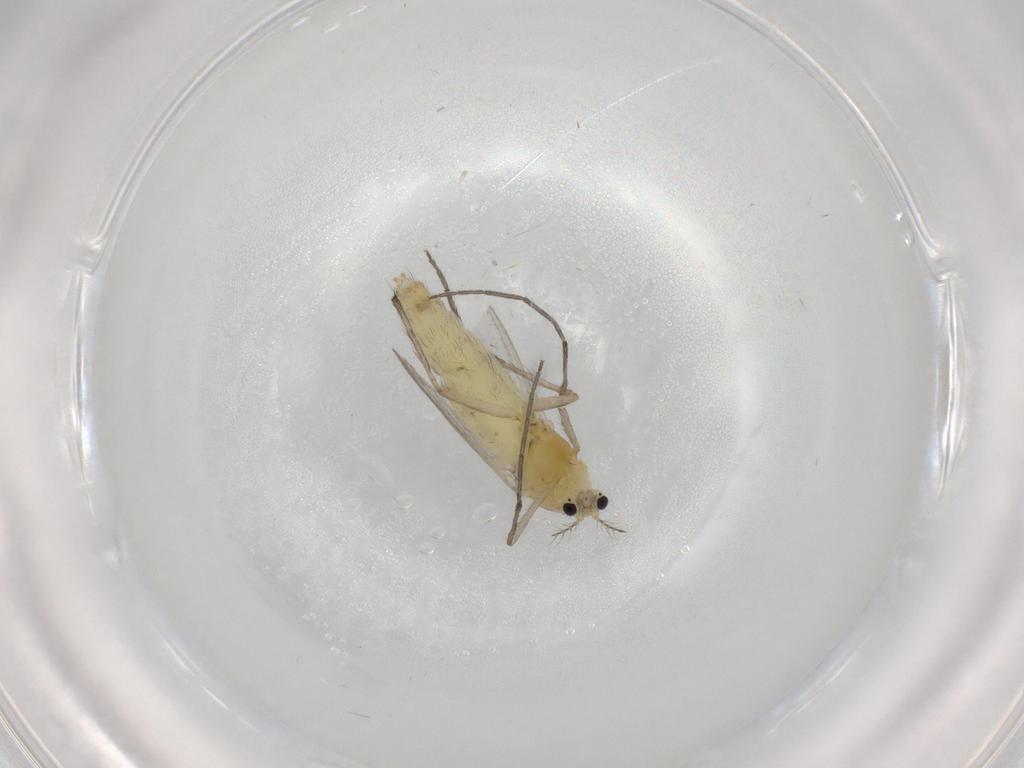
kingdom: Animalia
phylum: Arthropoda
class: Insecta
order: Diptera
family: Chironomidae
